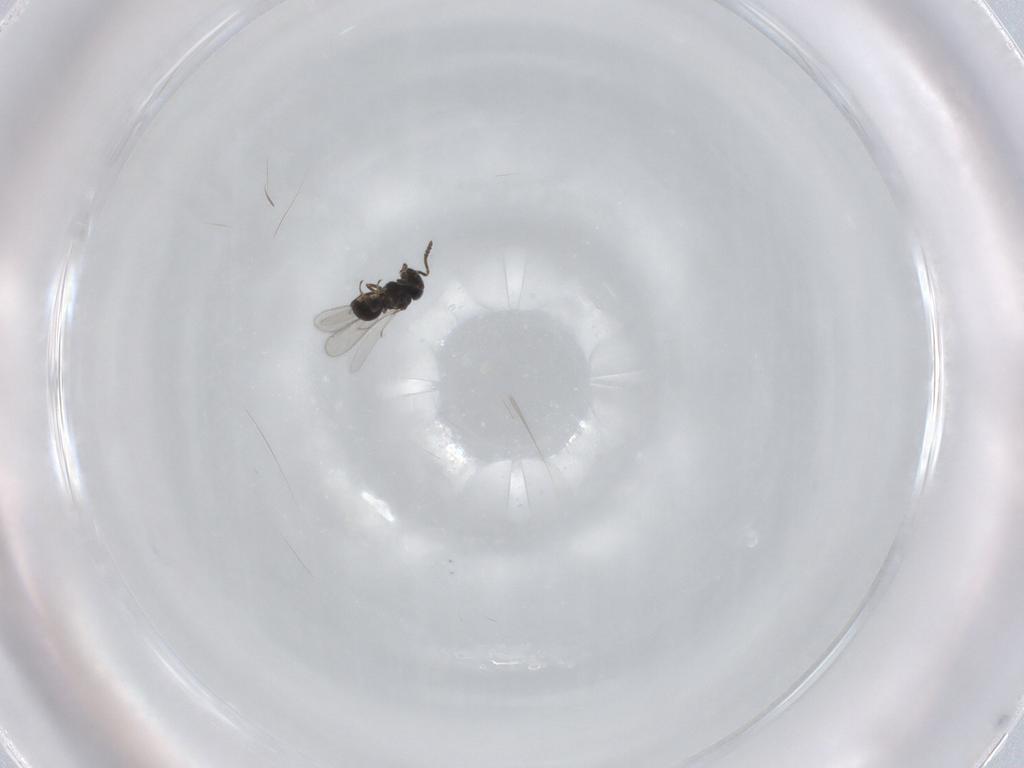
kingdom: Animalia
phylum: Arthropoda
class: Insecta
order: Hymenoptera
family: Scelionidae
